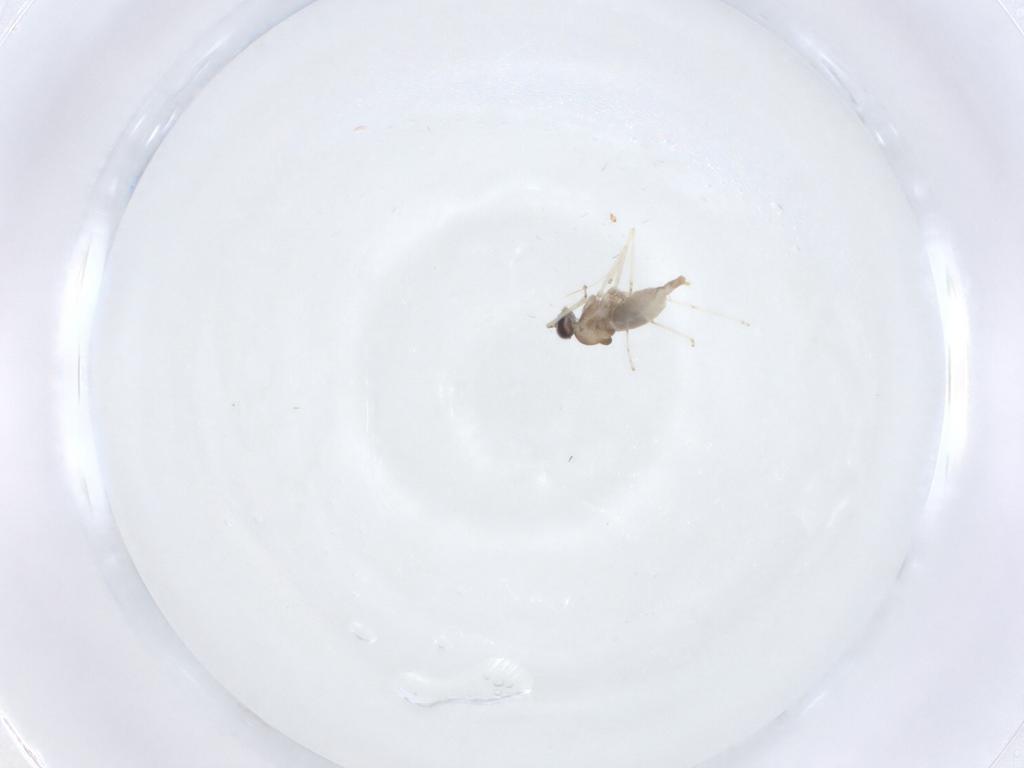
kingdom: Animalia
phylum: Arthropoda
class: Insecta
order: Diptera
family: Cecidomyiidae
